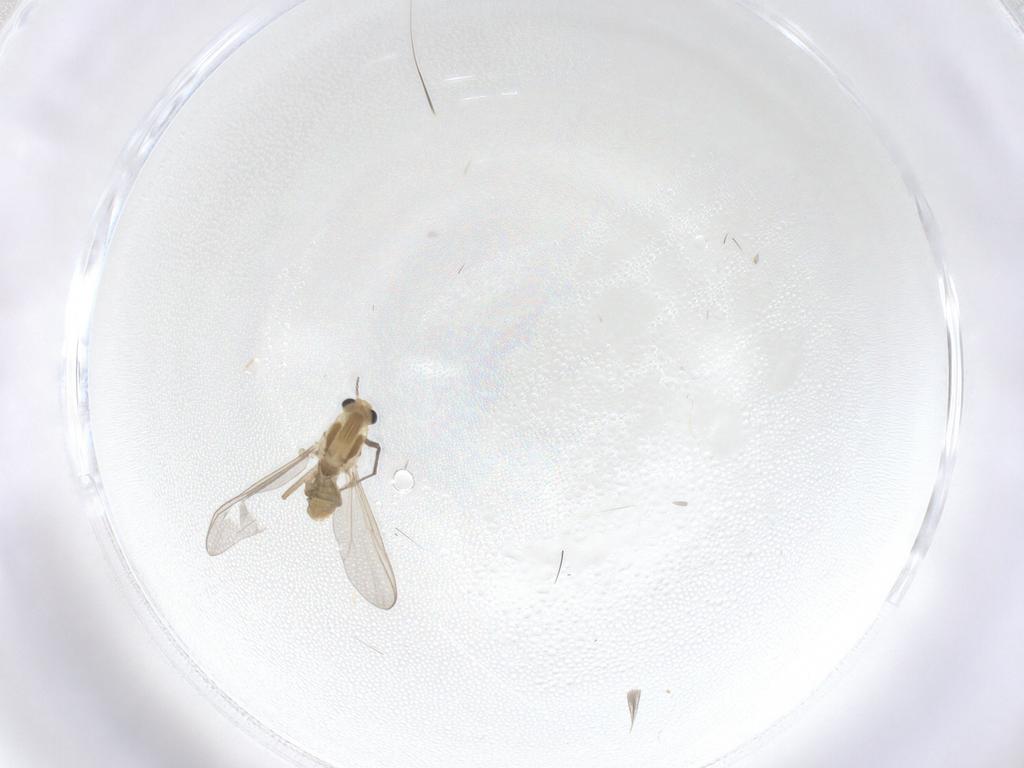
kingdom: Animalia
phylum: Arthropoda
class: Insecta
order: Diptera
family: Chironomidae
